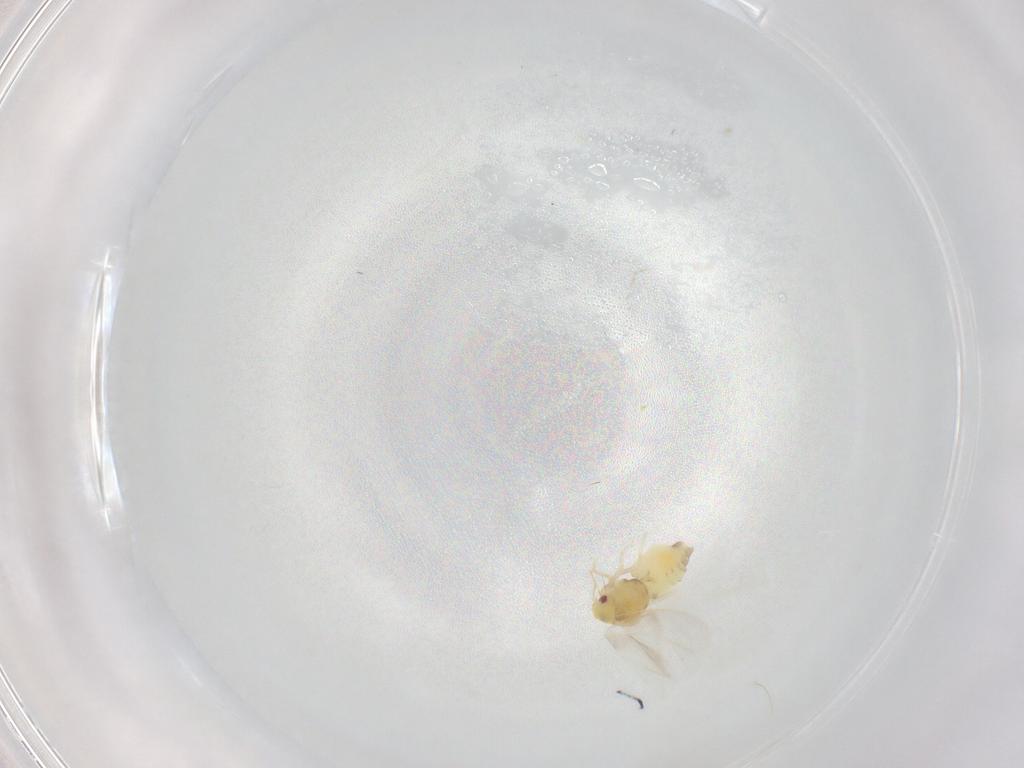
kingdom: Animalia
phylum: Arthropoda
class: Insecta
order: Hemiptera
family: Aleyrodidae
